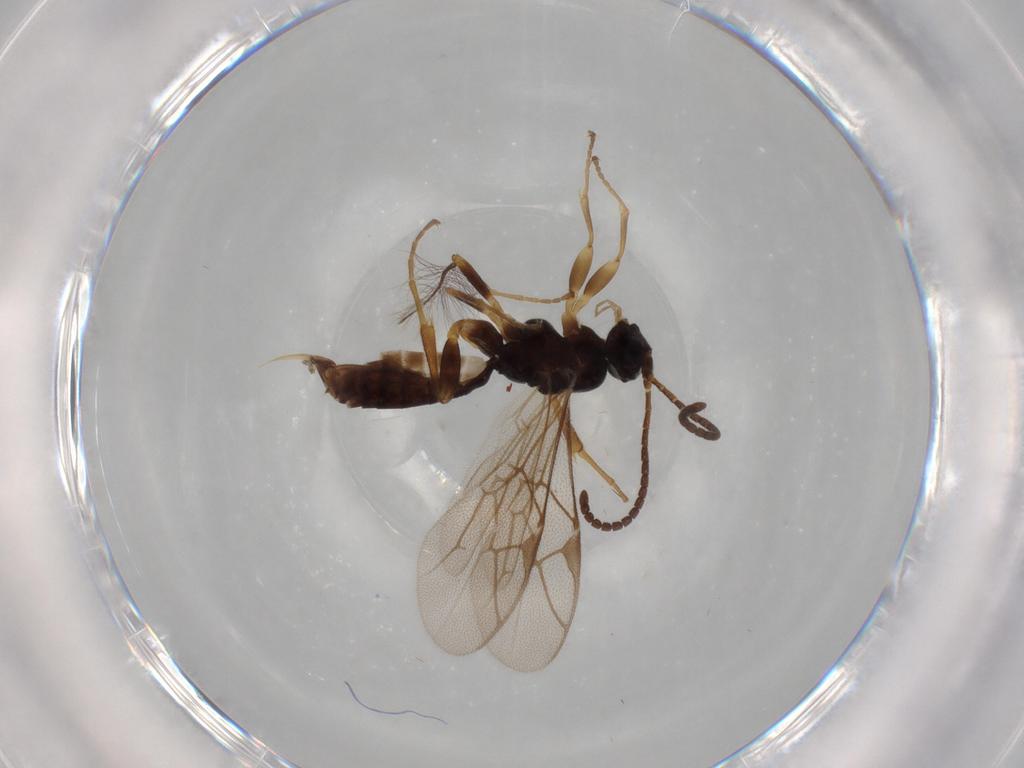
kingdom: Animalia
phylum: Arthropoda
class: Insecta
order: Hymenoptera
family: Ichneumonidae
